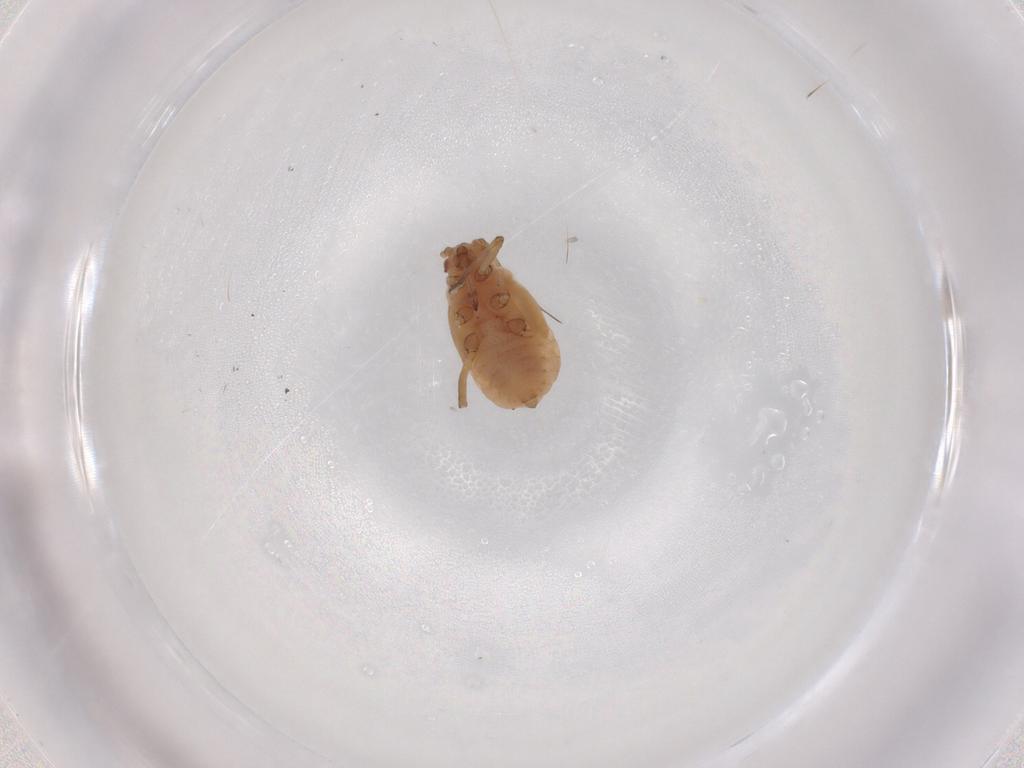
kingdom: Animalia
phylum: Arthropoda
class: Insecta
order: Hemiptera
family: Aphididae
